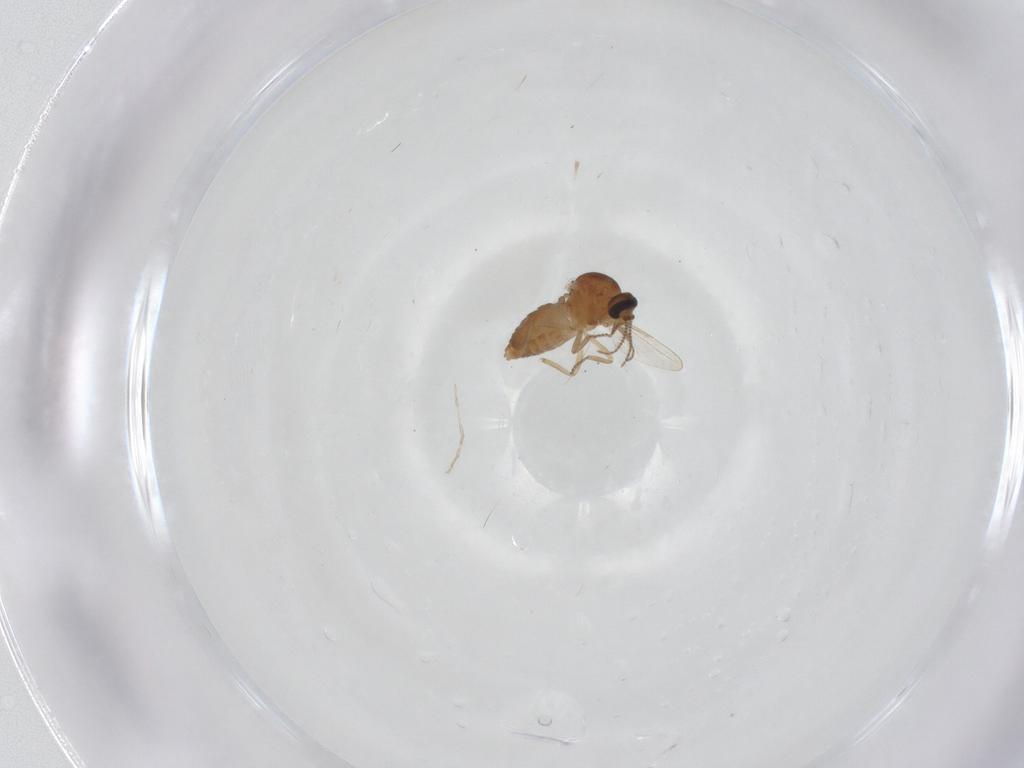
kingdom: Animalia
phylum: Arthropoda
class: Insecta
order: Diptera
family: Ceratopogonidae
